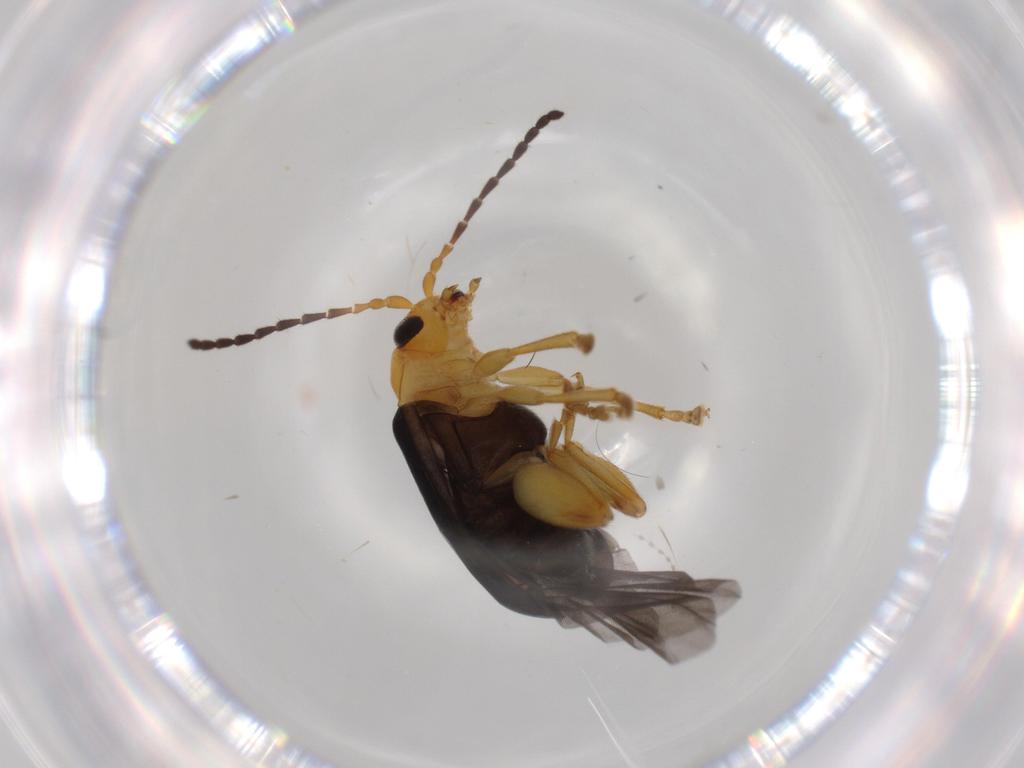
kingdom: Animalia
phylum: Arthropoda
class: Insecta
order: Coleoptera
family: Chrysomelidae
